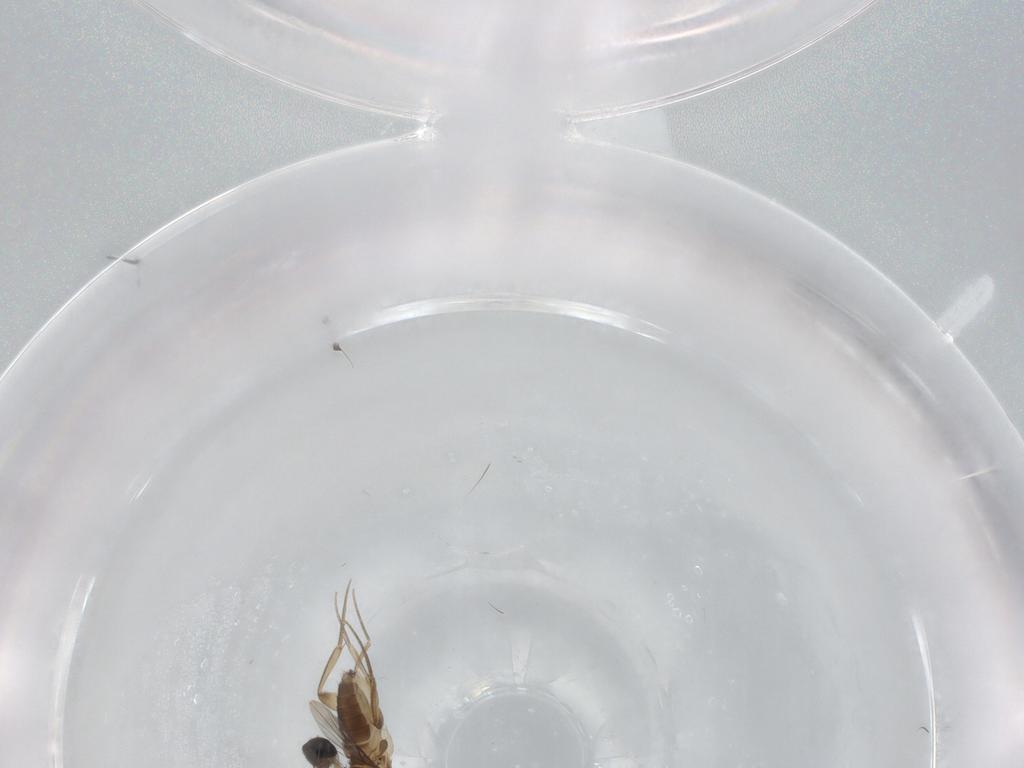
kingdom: Animalia
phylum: Arthropoda
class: Insecta
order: Diptera
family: Phoridae
